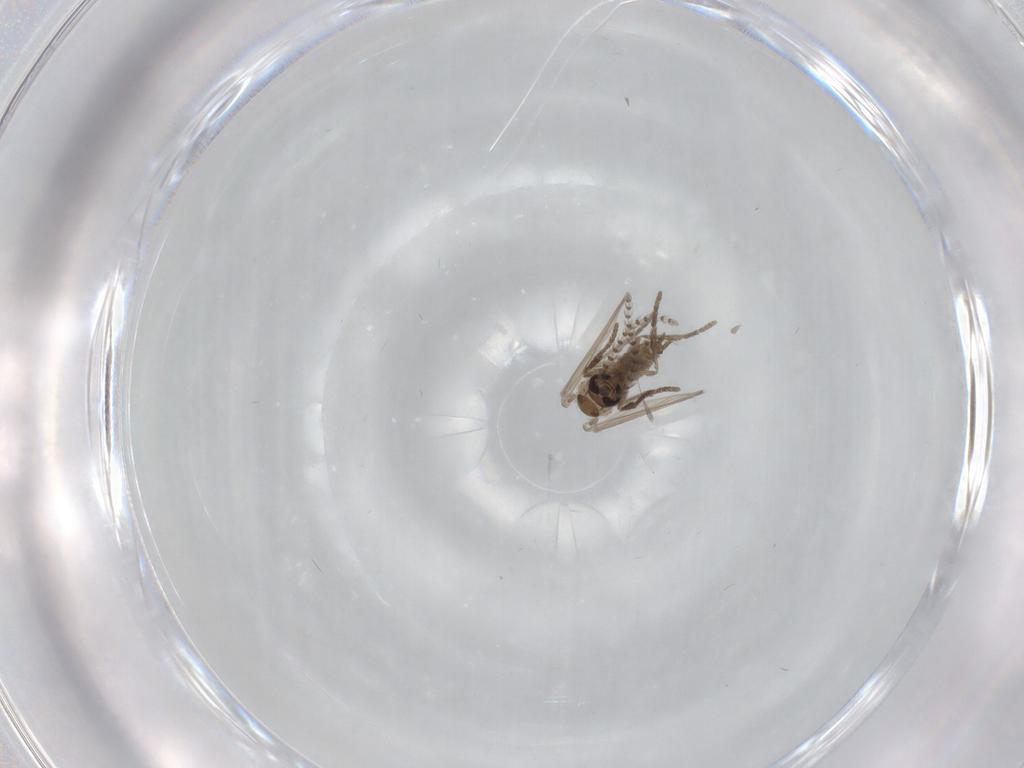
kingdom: Animalia
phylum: Arthropoda
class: Insecta
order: Diptera
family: Psychodidae
